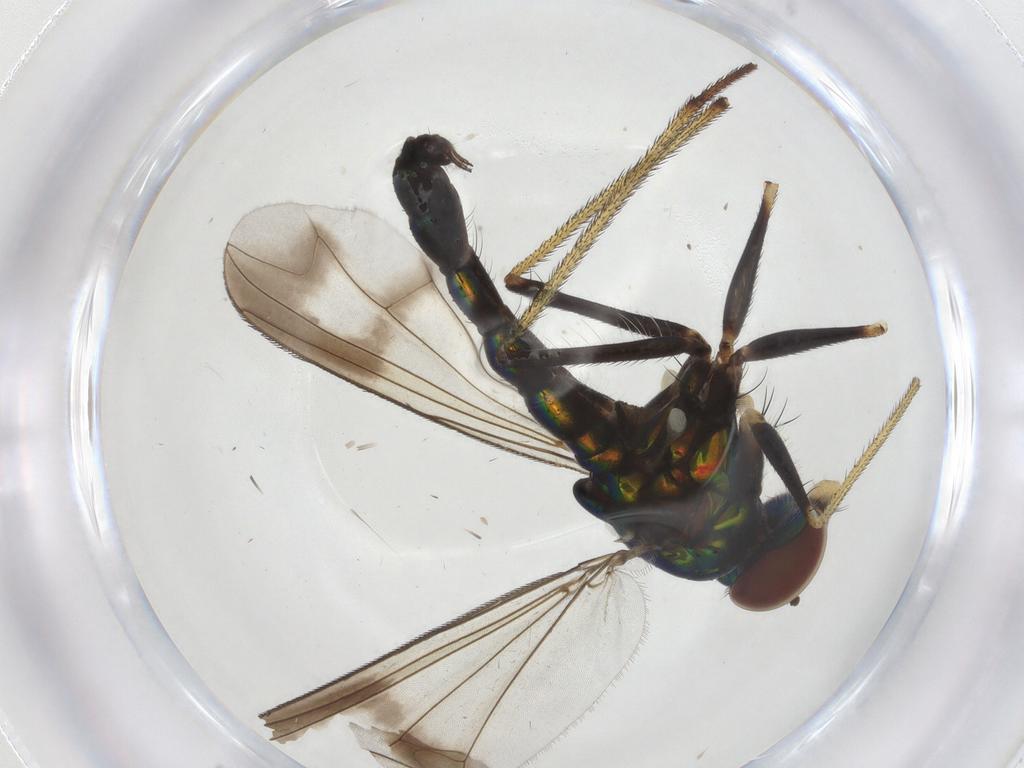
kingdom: Animalia
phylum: Arthropoda
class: Insecta
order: Diptera
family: Dolichopodidae
